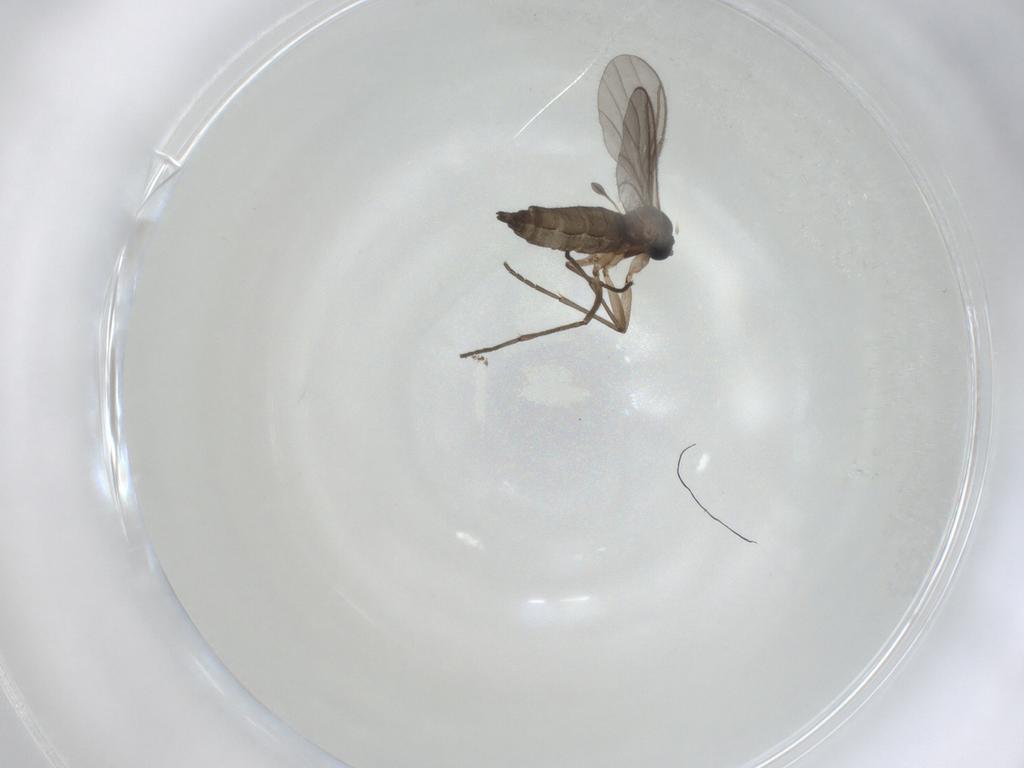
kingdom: Animalia
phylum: Arthropoda
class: Insecta
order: Diptera
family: Sciaridae
